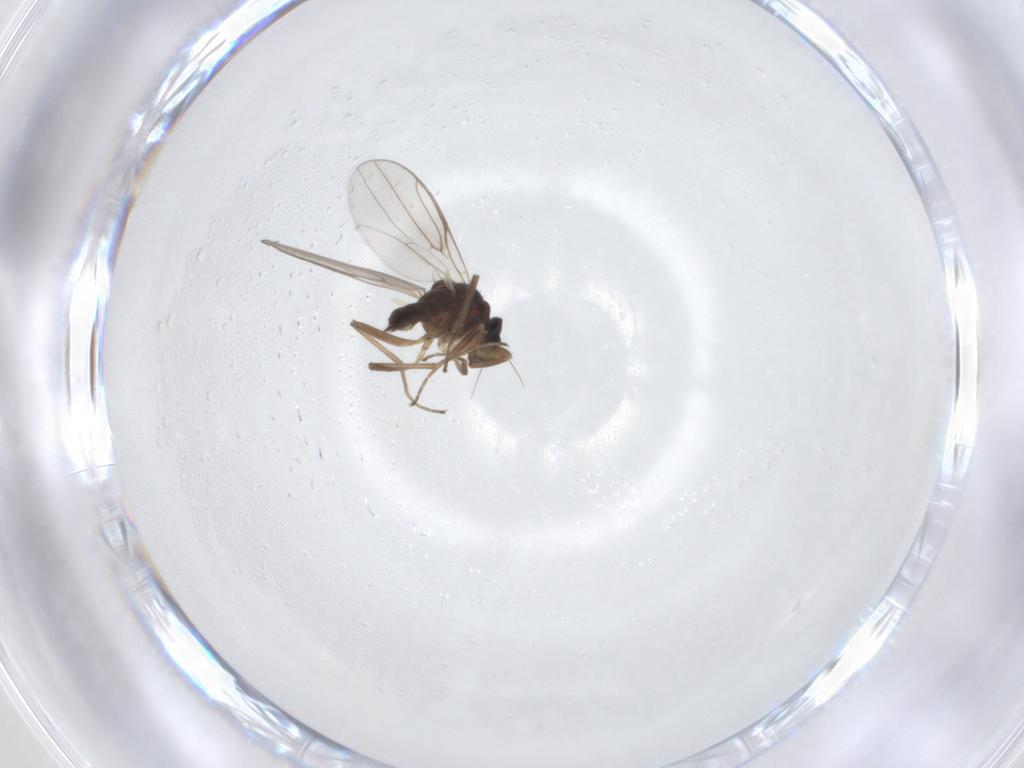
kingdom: Animalia
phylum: Arthropoda
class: Insecta
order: Diptera
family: Hybotidae
